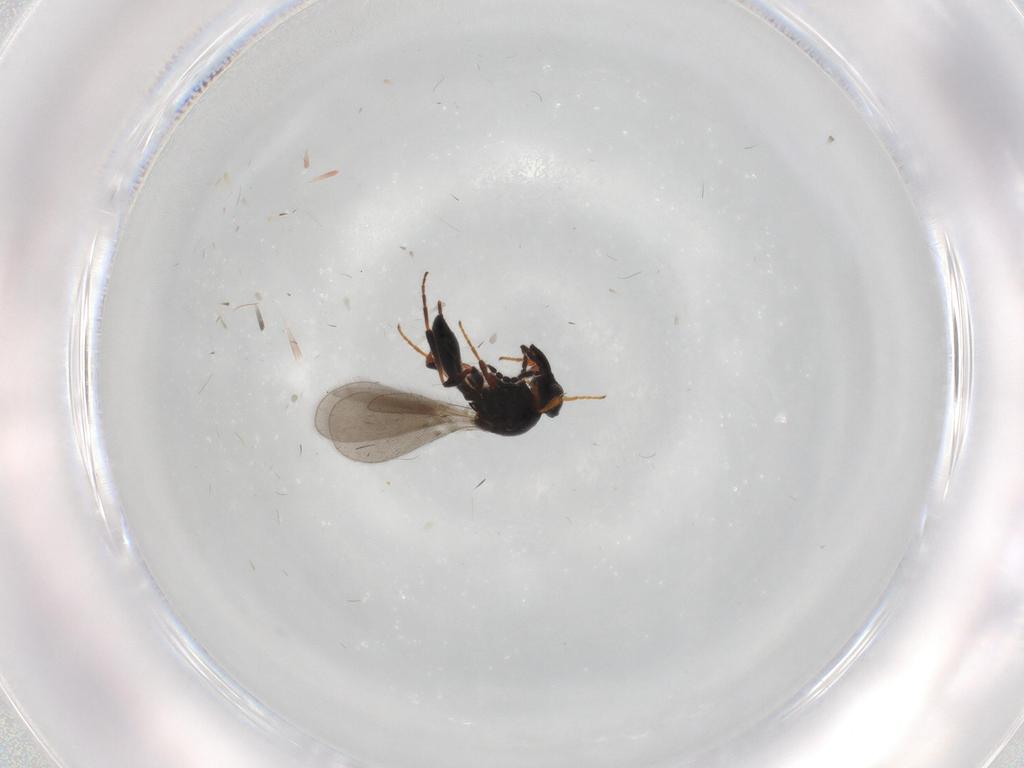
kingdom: Animalia
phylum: Arthropoda
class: Insecta
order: Hymenoptera
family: Platygastridae
